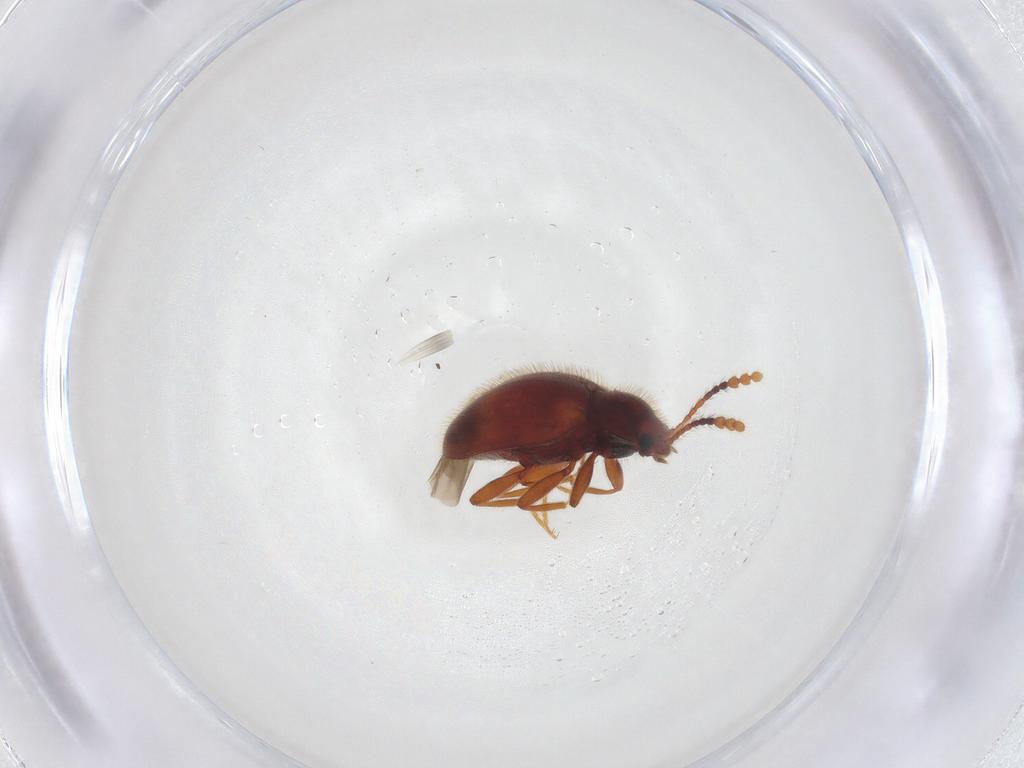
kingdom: Animalia
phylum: Arthropoda
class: Insecta
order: Coleoptera
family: Erotylidae
